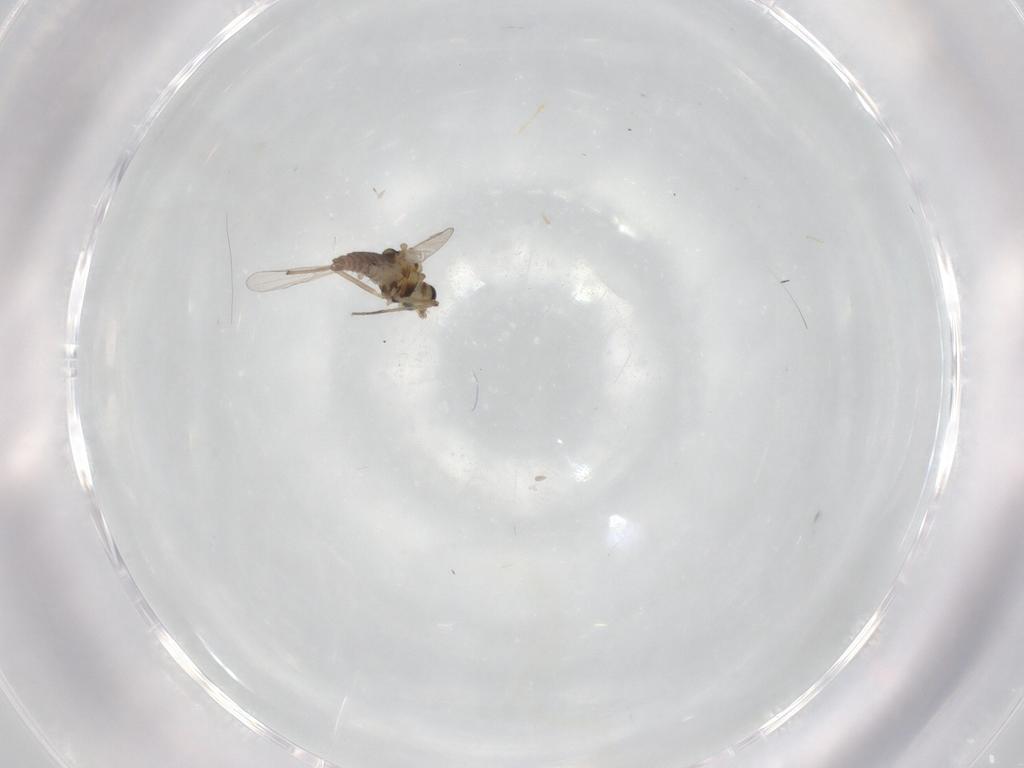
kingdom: Animalia
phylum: Arthropoda
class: Insecta
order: Diptera
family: Chironomidae
